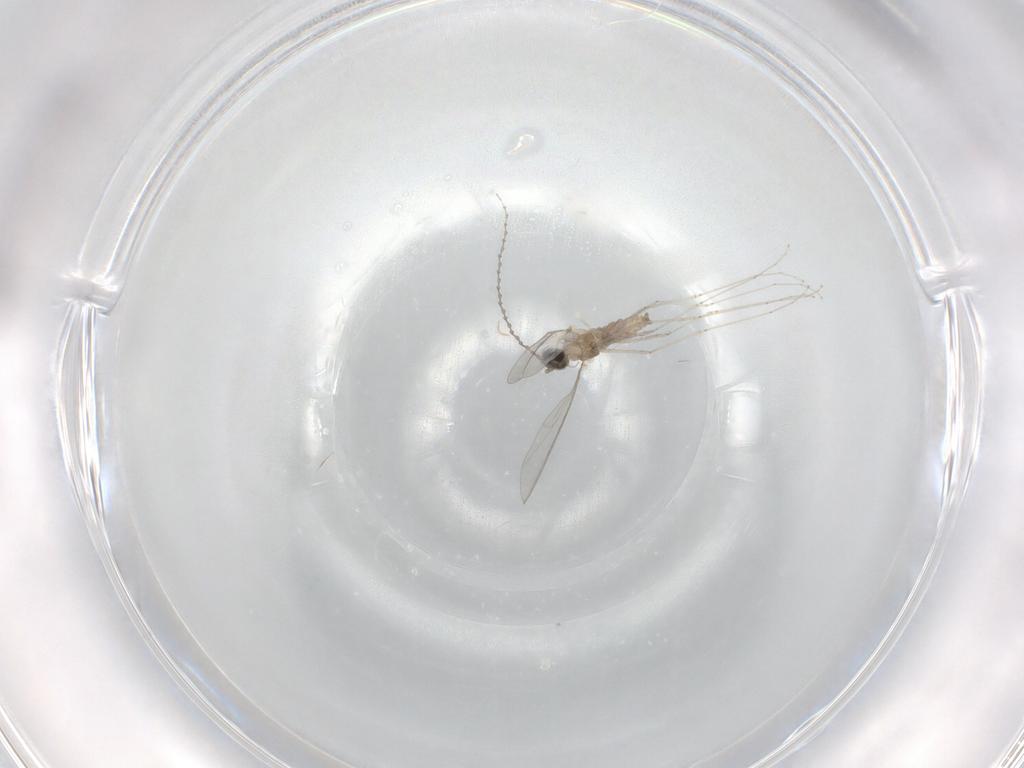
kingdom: Animalia
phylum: Arthropoda
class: Insecta
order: Diptera
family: Cecidomyiidae
